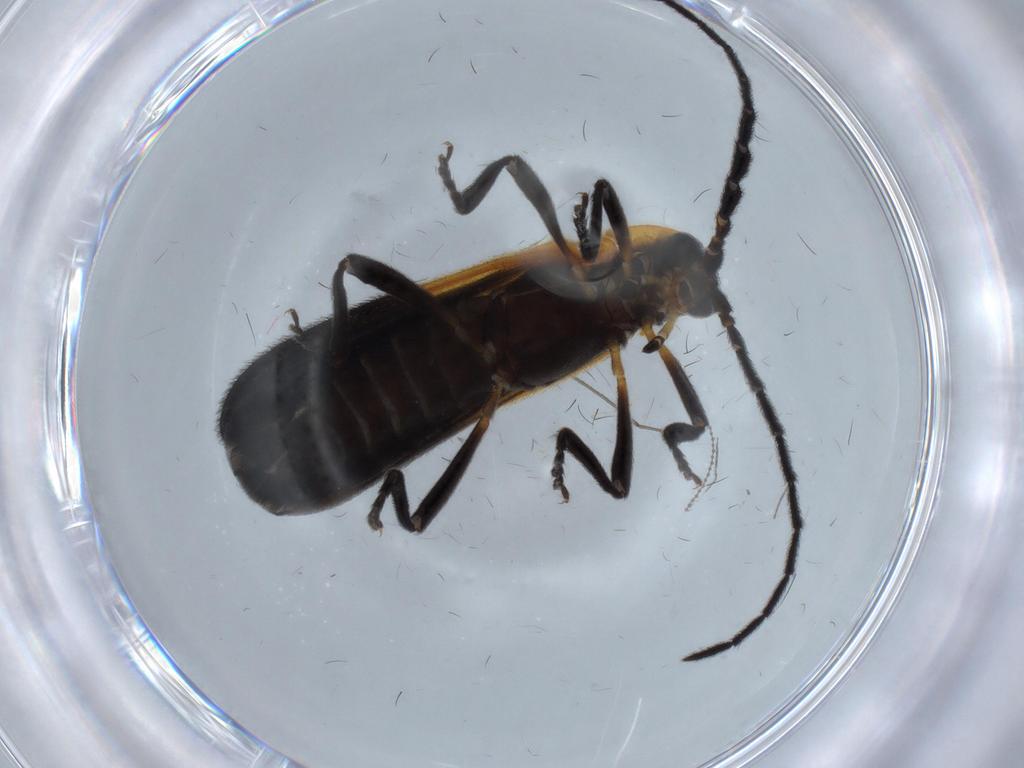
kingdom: Animalia
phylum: Arthropoda
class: Insecta
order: Coleoptera
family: Lycidae
